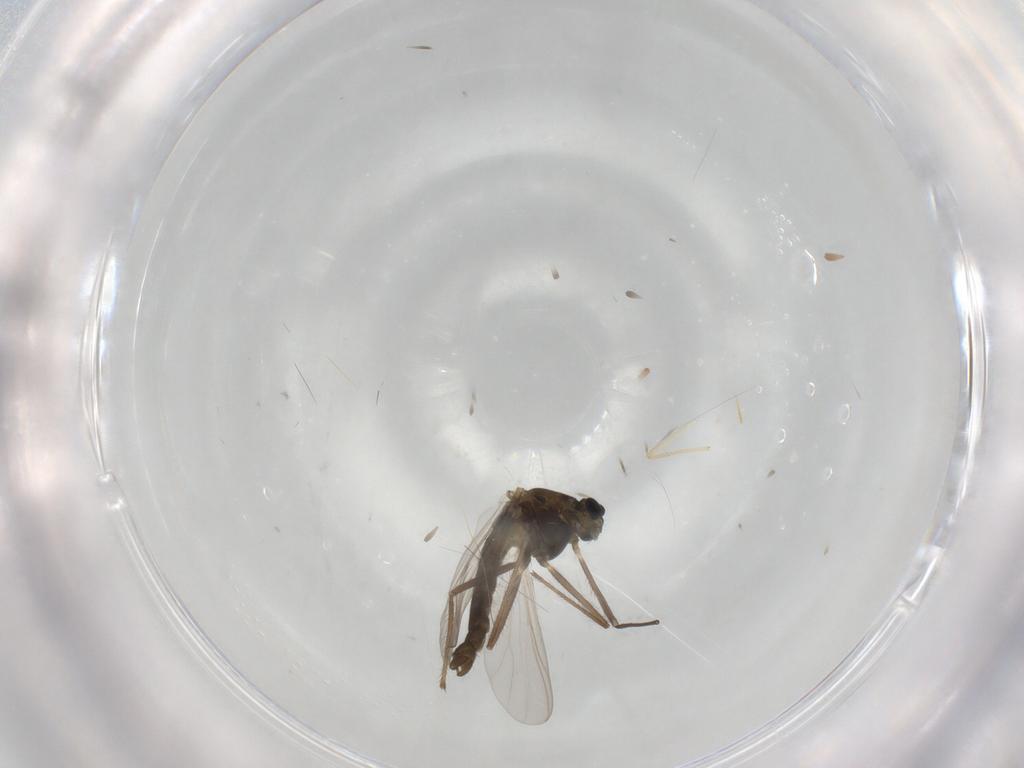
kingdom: Animalia
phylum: Arthropoda
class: Insecta
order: Diptera
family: Chironomidae
